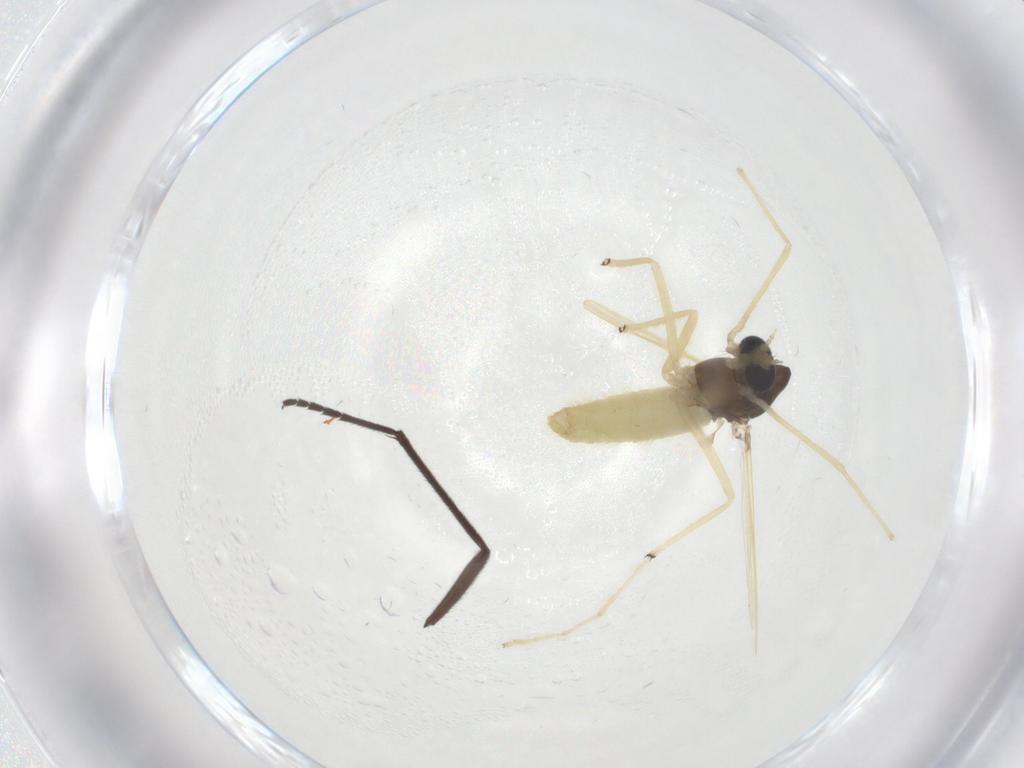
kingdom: Animalia
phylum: Arthropoda
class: Insecta
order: Diptera
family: Chironomidae
